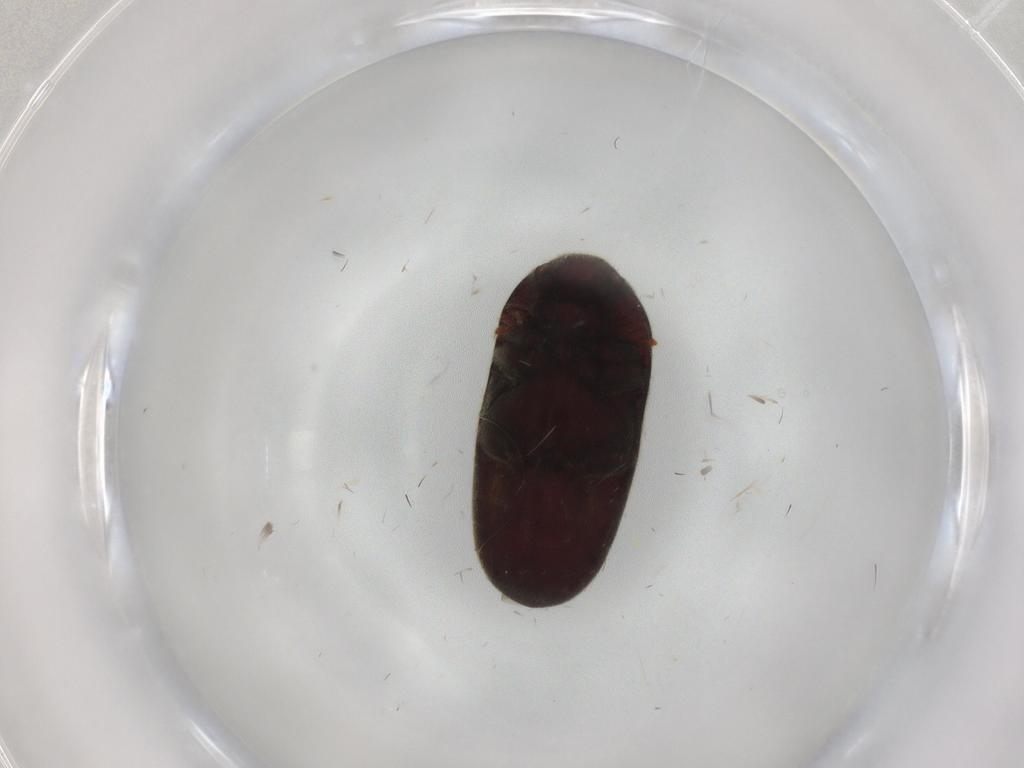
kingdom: Animalia
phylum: Arthropoda
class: Insecta
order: Coleoptera
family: Throscidae
